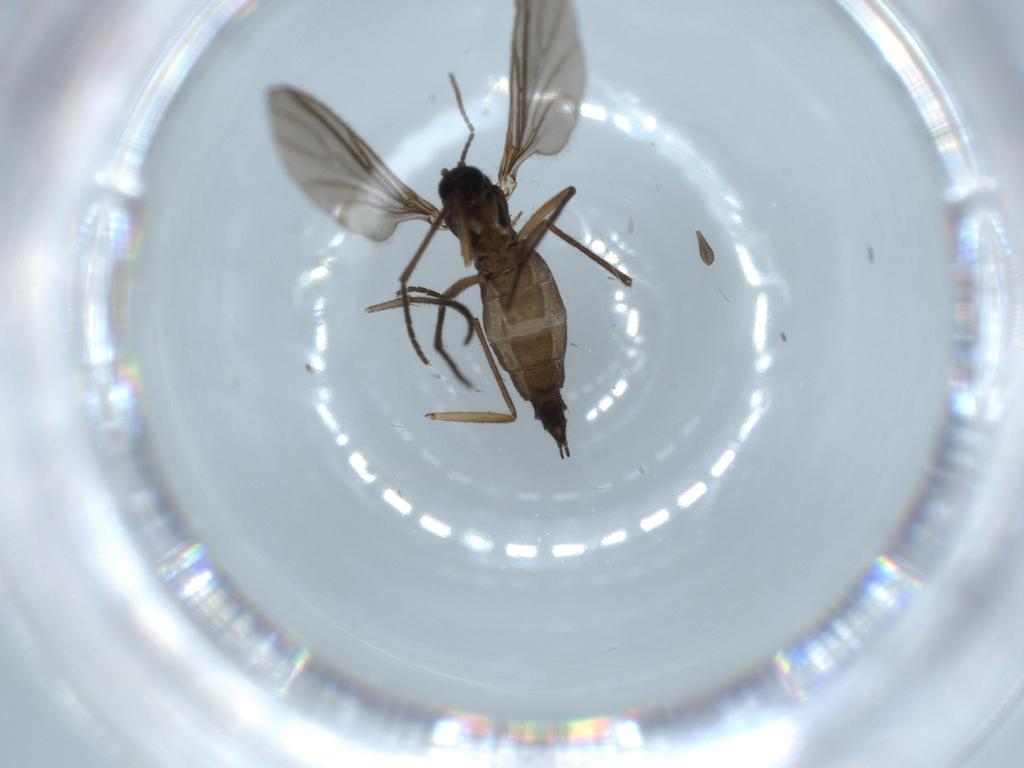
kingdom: Animalia
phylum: Arthropoda
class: Insecta
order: Diptera
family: Sciaridae
